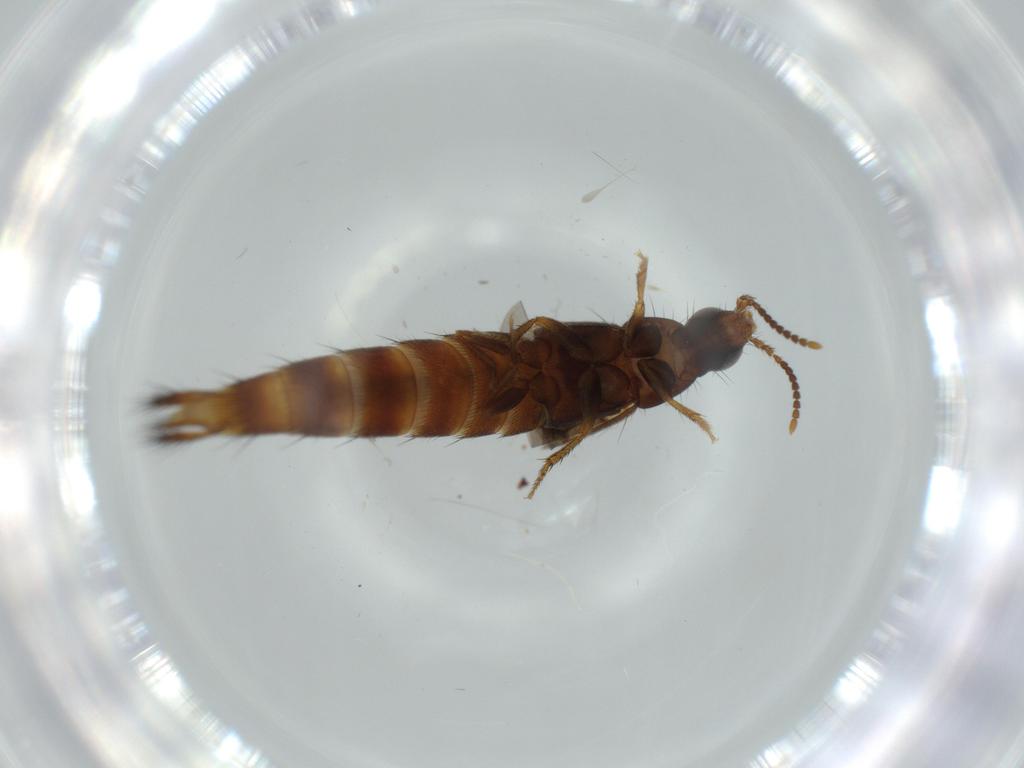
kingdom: Animalia
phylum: Arthropoda
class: Insecta
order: Coleoptera
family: Staphylinidae
